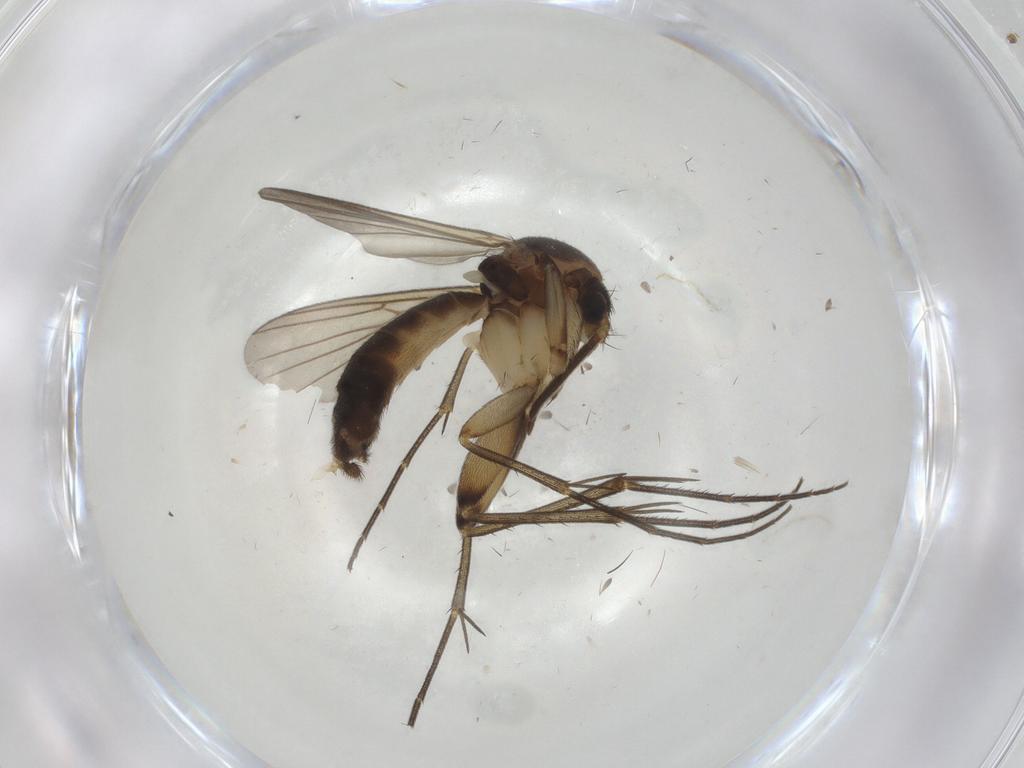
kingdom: Animalia
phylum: Arthropoda
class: Insecta
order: Diptera
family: Mycetophilidae
